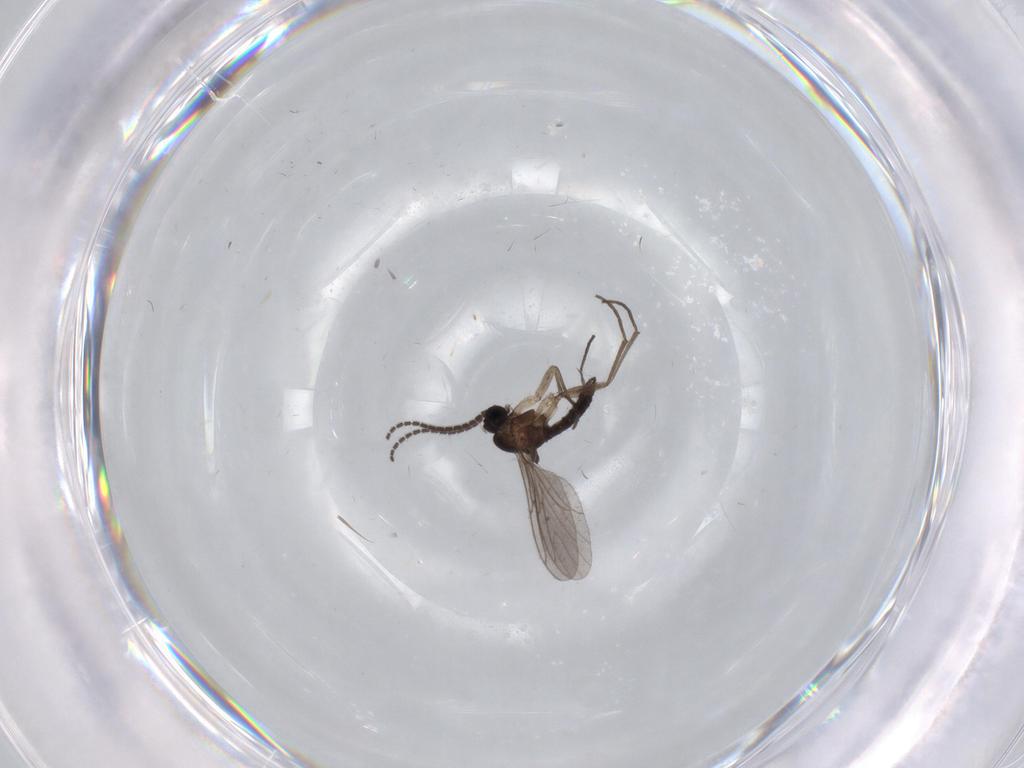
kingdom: Animalia
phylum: Arthropoda
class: Insecta
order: Diptera
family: Sciaridae
